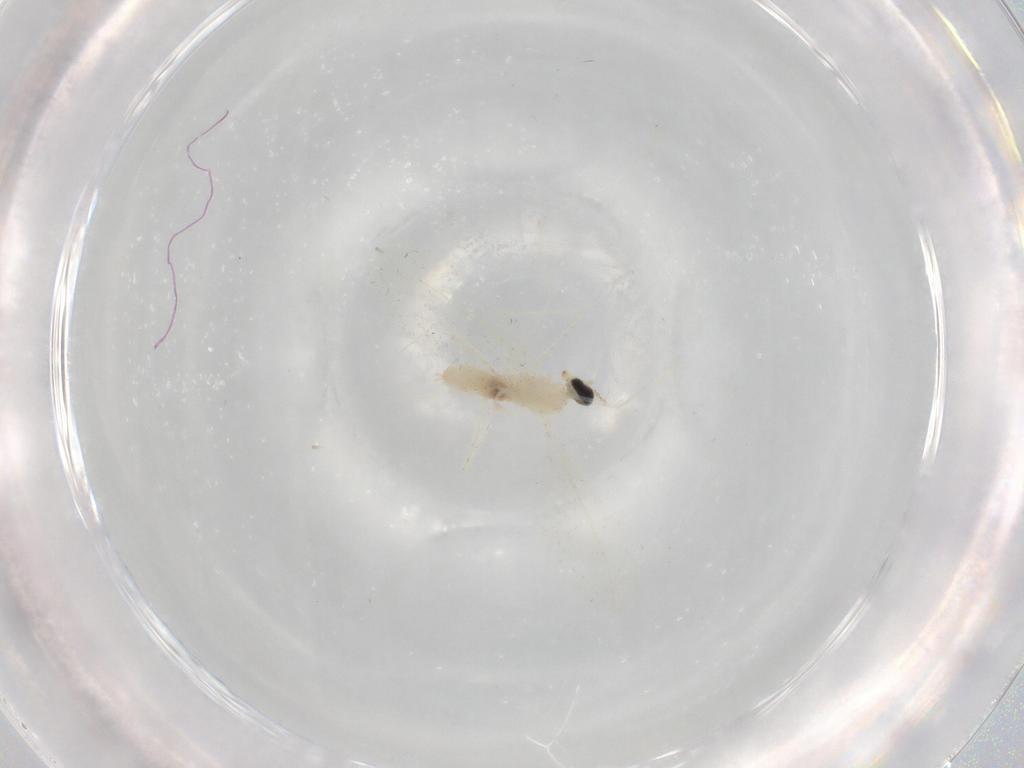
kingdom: Animalia
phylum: Arthropoda
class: Insecta
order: Diptera
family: Cecidomyiidae
